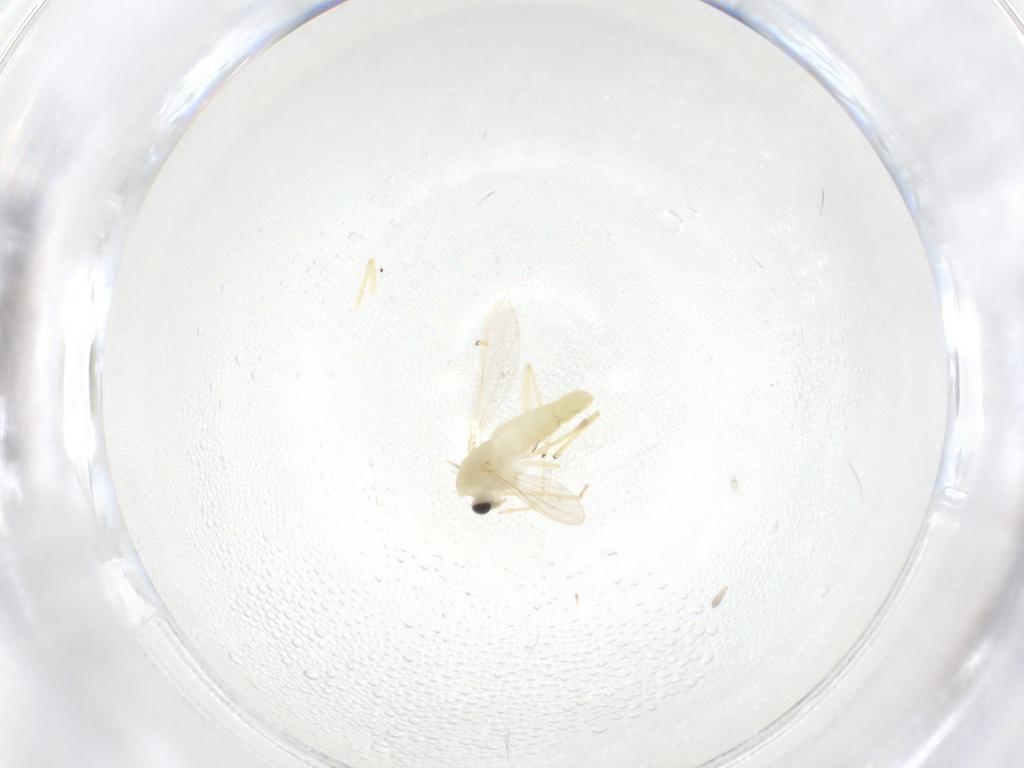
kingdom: Animalia
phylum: Arthropoda
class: Insecta
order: Diptera
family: Chironomidae
